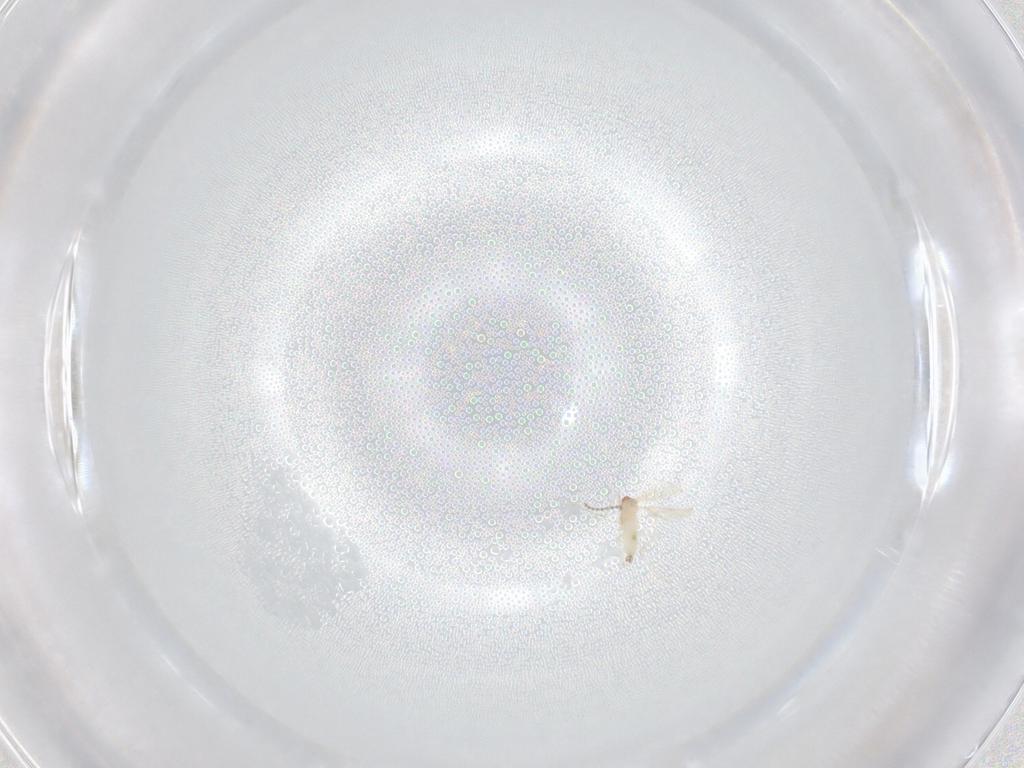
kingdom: Animalia
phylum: Arthropoda
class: Insecta
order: Diptera
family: Cecidomyiidae
